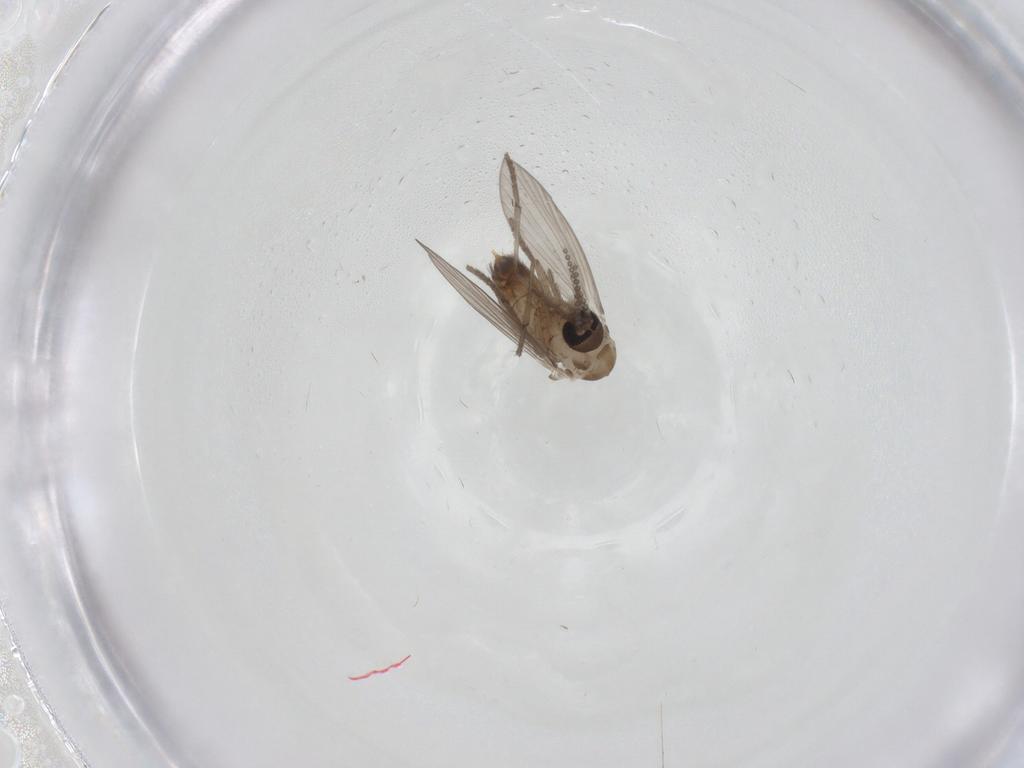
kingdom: Animalia
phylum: Arthropoda
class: Insecta
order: Diptera
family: Psychodidae
